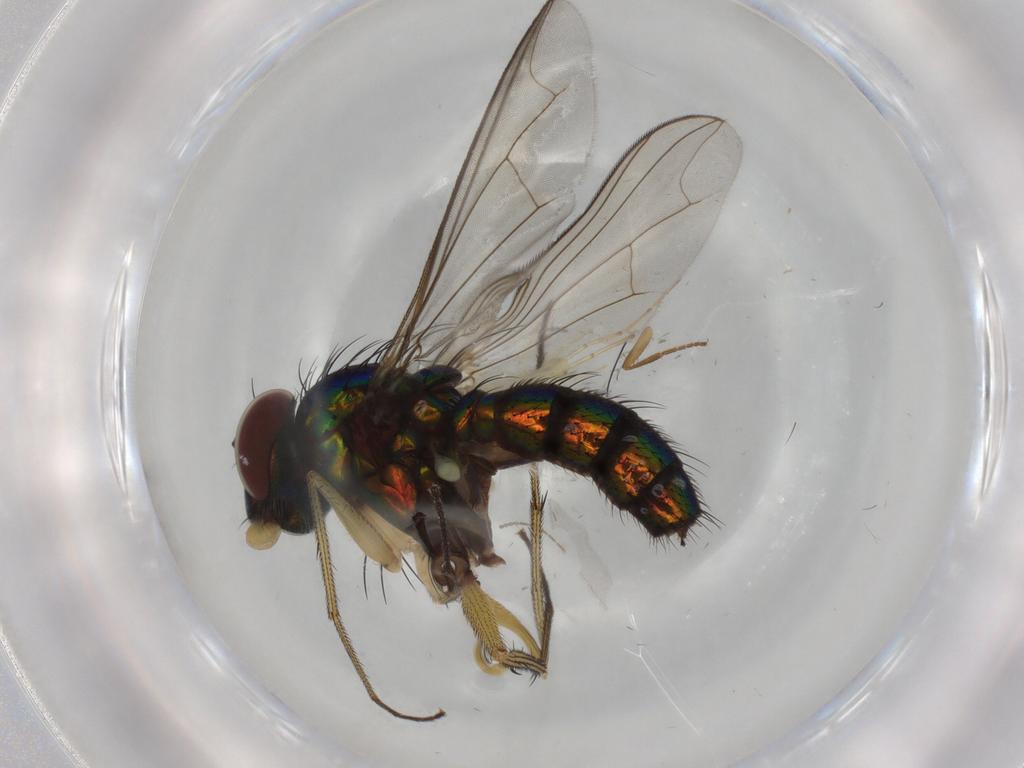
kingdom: Animalia
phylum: Arthropoda
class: Insecta
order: Diptera
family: Dolichopodidae
